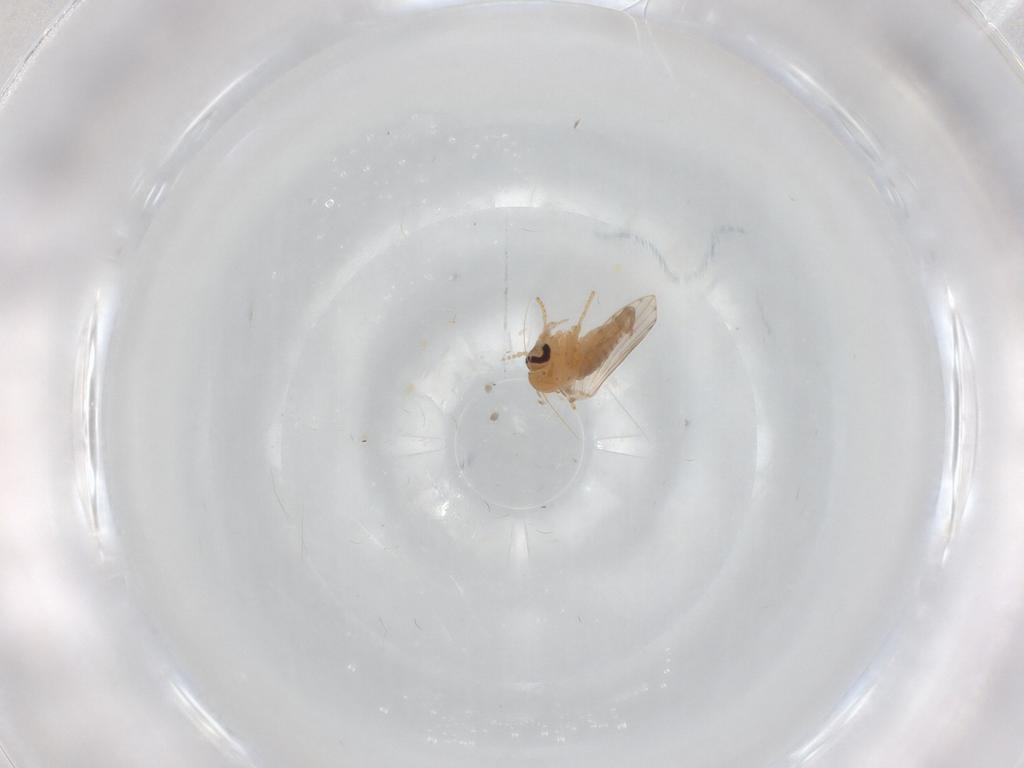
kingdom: Animalia
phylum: Arthropoda
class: Insecta
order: Diptera
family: Psychodidae
